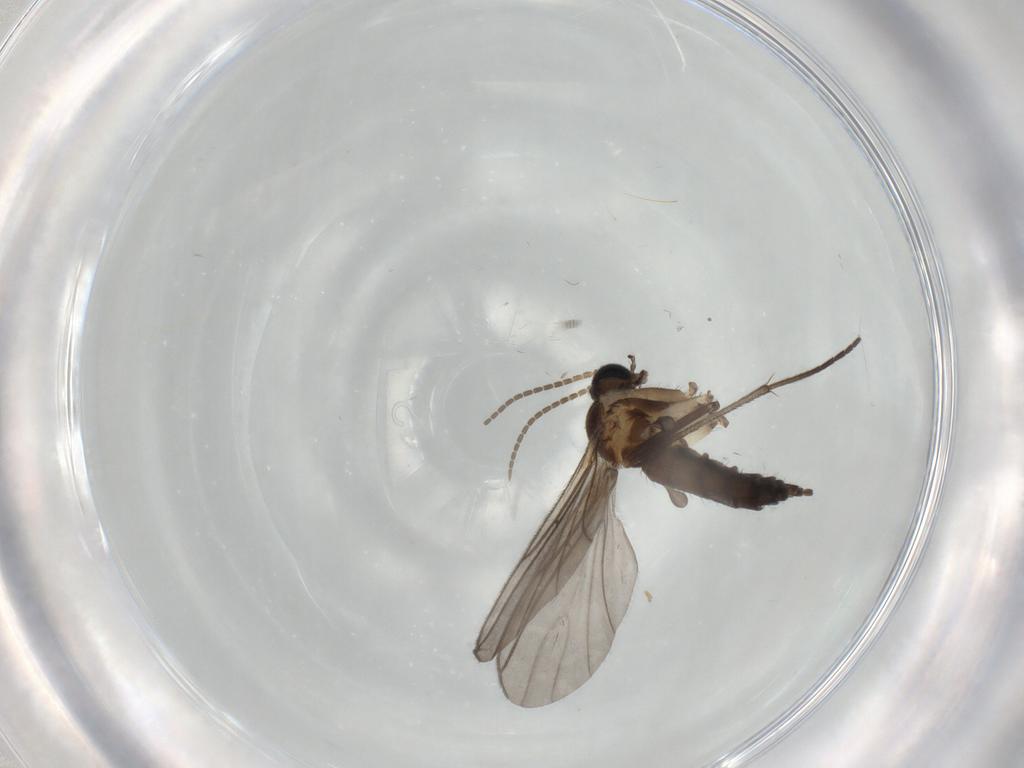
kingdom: Animalia
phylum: Arthropoda
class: Insecta
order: Diptera
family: Sciaridae
